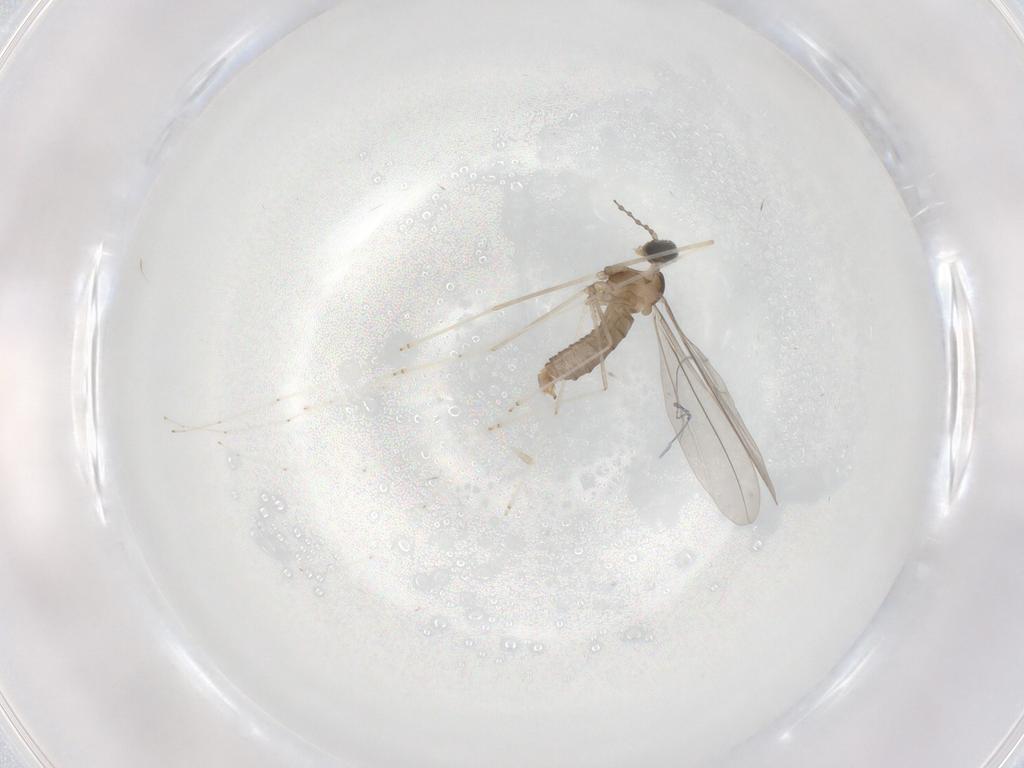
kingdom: Animalia
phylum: Arthropoda
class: Insecta
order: Diptera
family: Cecidomyiidae
